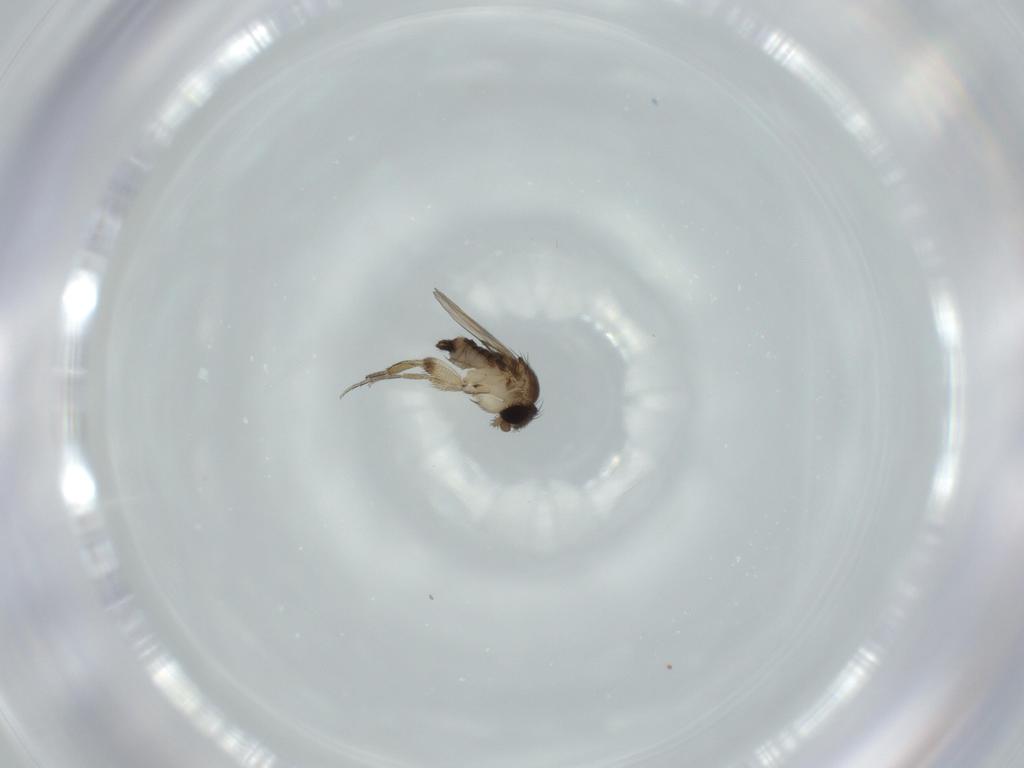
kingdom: Animalia
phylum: Arthropoda
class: Insecta
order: Diptera
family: Phoridae
